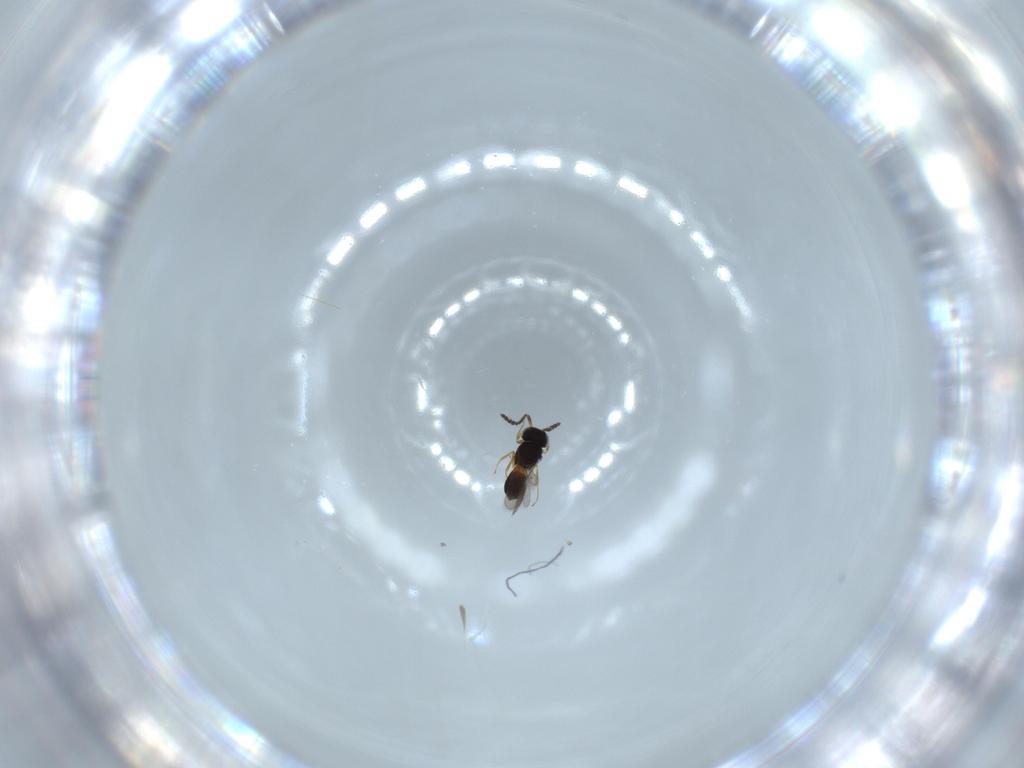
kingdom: Animalia
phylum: Arthropoda
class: Insecta
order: Hymenoptera
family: Formicidae
